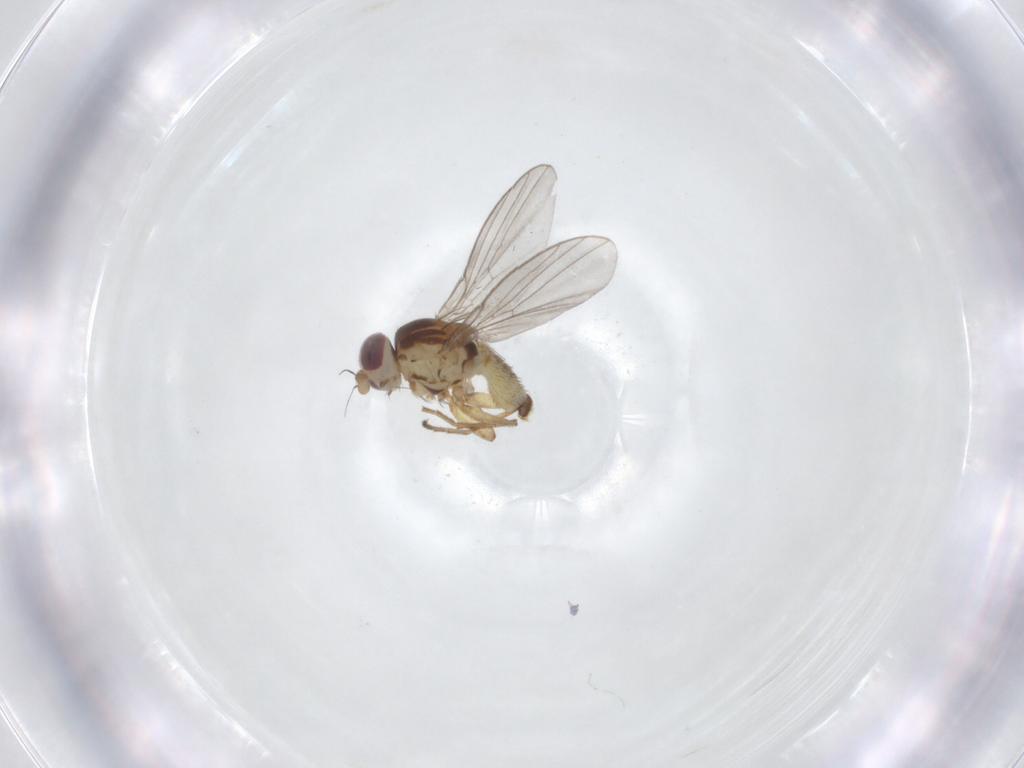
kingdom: Animalia
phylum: Arthropoda
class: Insecta
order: Diptera
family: Agromyzidae
